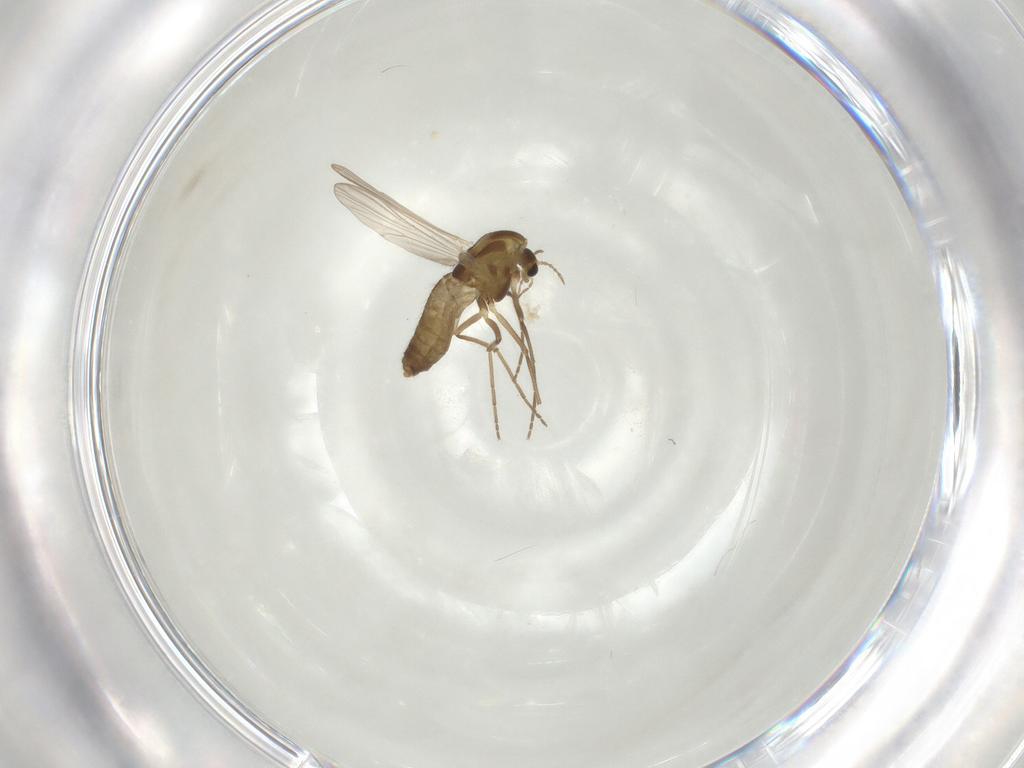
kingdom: Animalia
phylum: Arthropoda
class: Insecta
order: Diptera
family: Chironomidae
